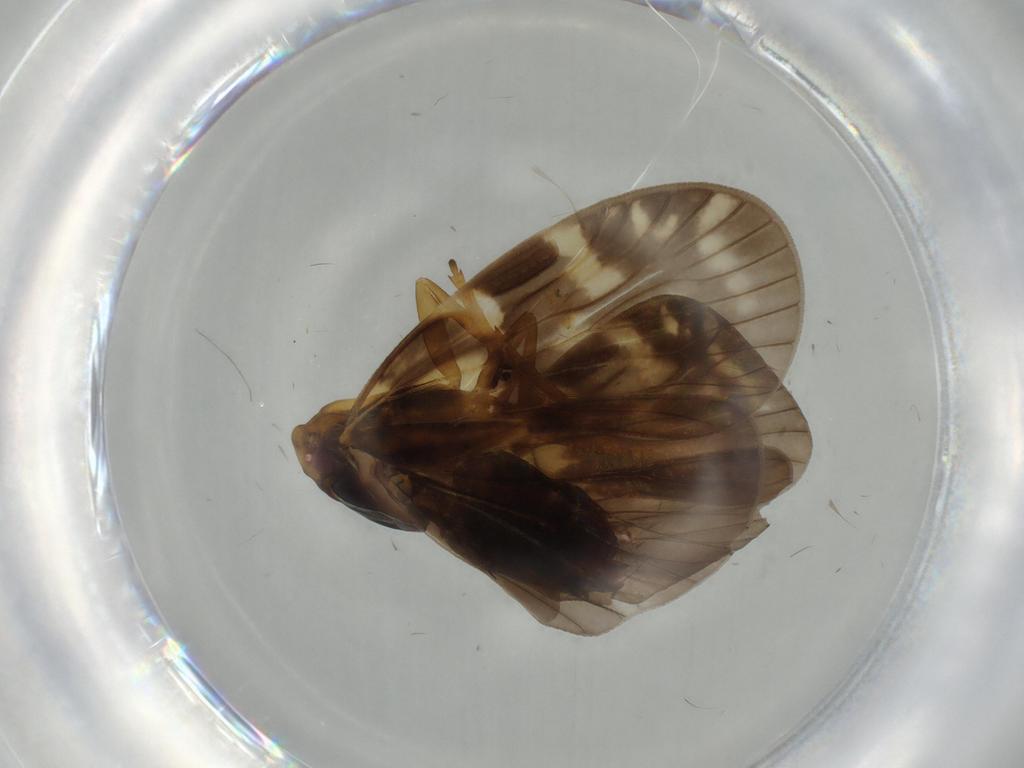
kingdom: Animalia
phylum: Arthropoda
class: Insecta
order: Hemiptera
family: Cixiidae
